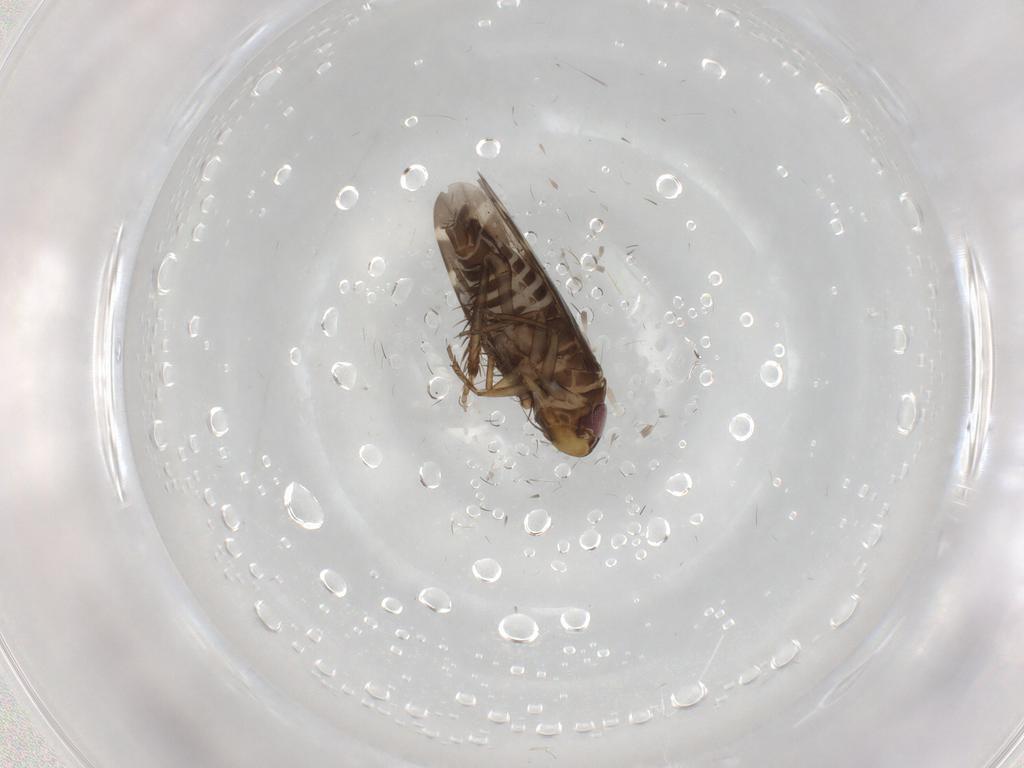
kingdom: Animalia
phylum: Arthropoda
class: Insecta
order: Hemiptera
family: Cicadellidae
